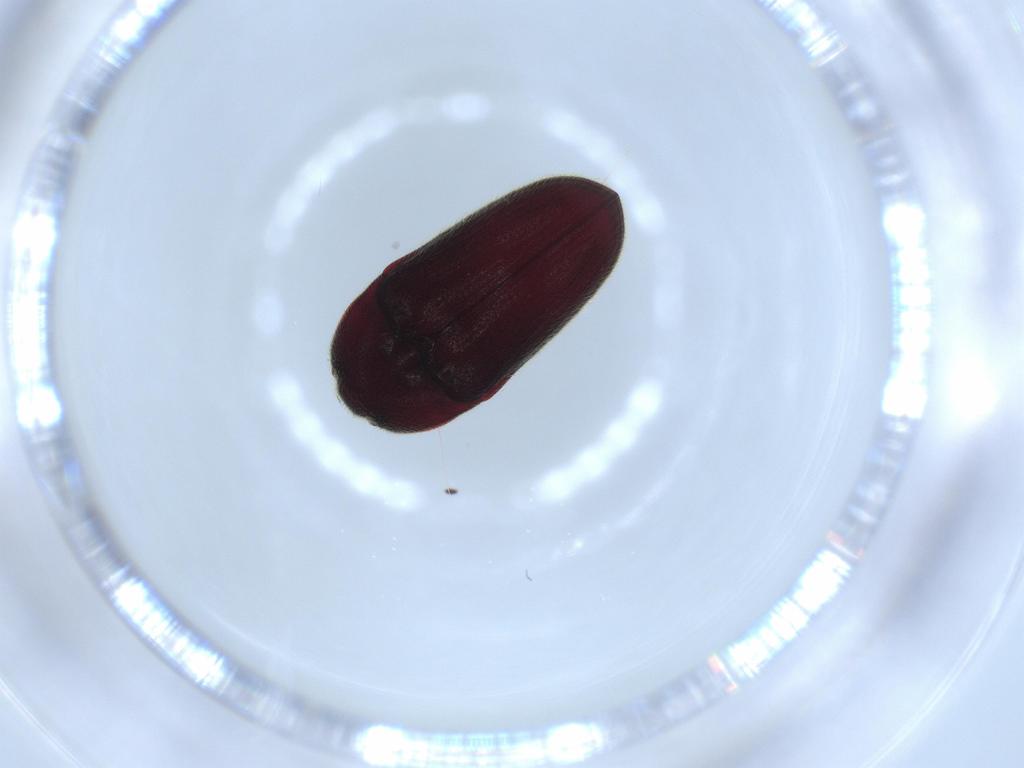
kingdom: Animalia
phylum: Arthropoda
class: Insecta
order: Coleoptera
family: Throscidae
